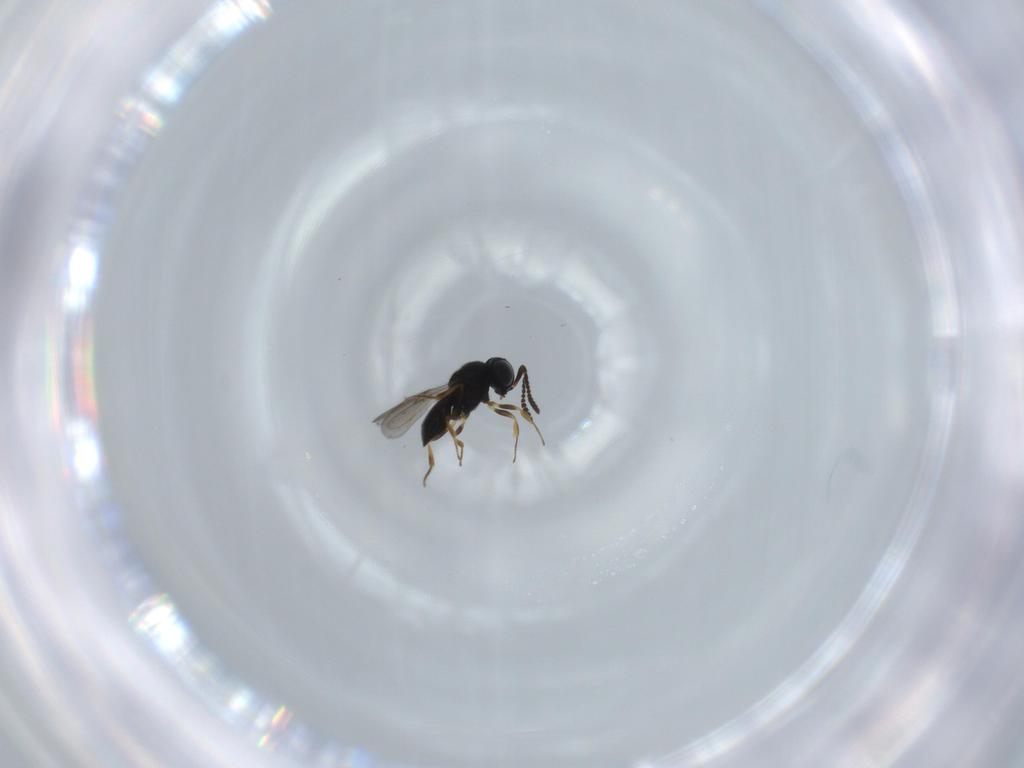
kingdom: Animalia
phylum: Arthropoda
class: Insecta
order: Hymenoptera
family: Scelionidae
